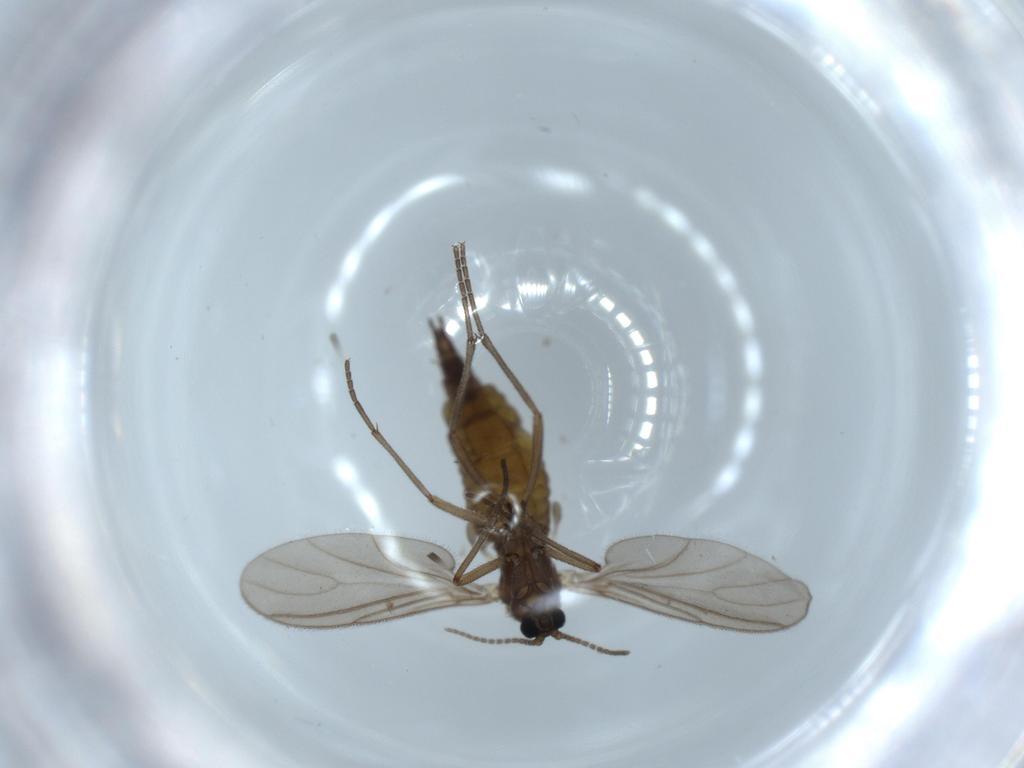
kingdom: Animalia
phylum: Arthropoda
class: Insecta
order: Diptera
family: Sciaridae
